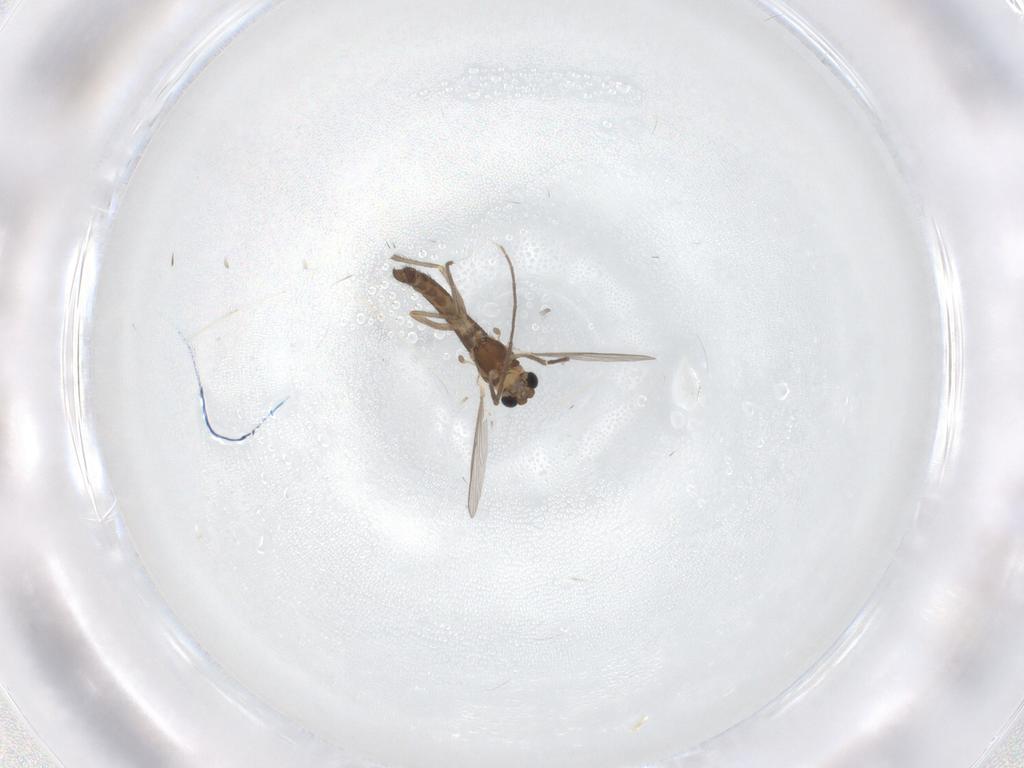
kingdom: Animalia
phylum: Arthropoda
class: Insecta
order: Diptera
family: Chironomidae
